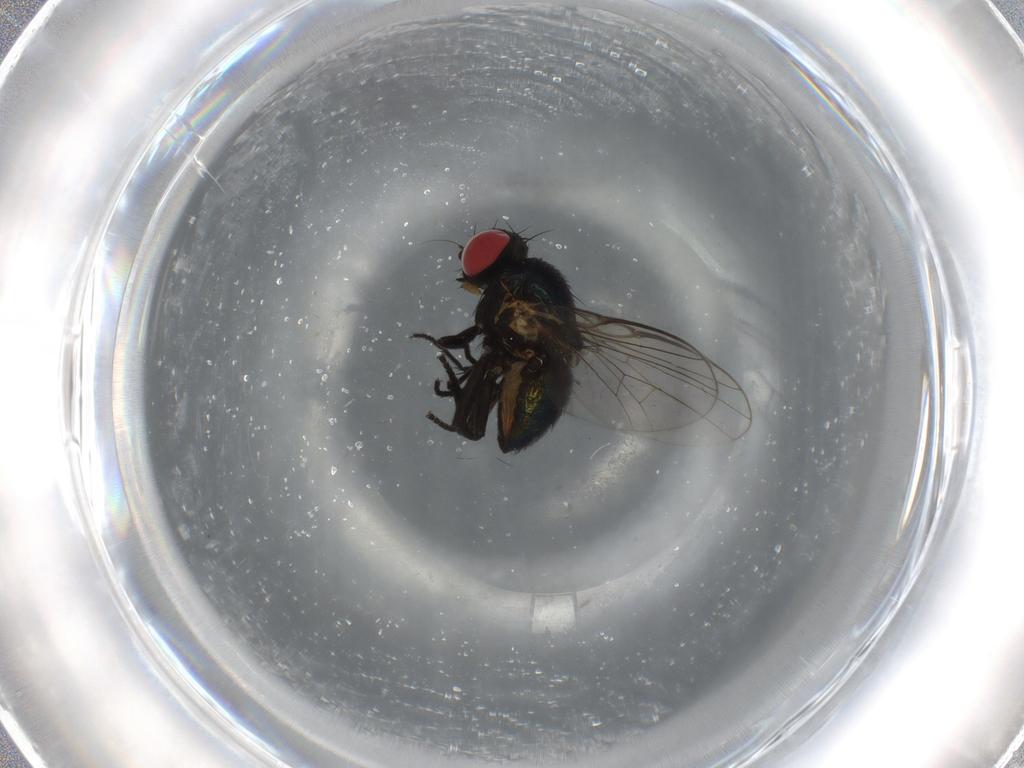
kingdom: Animalia
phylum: Arthropoda
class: Insecta
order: Diptera
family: Agromyzidae
